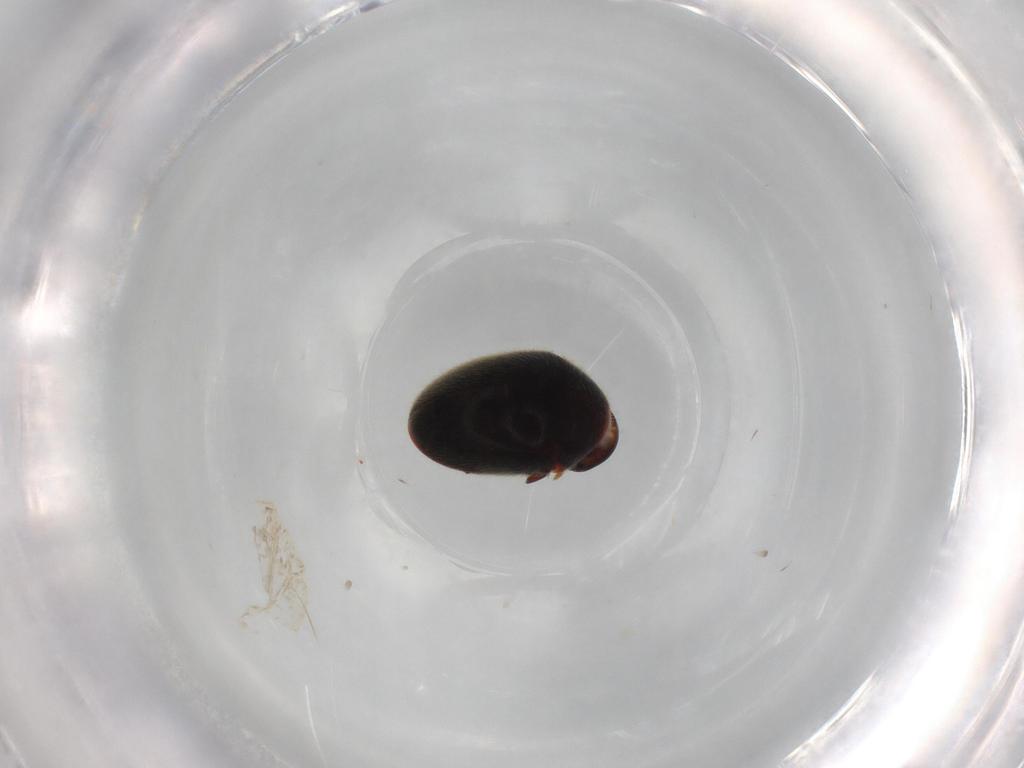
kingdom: Animalia
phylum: Arthropoda
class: Insecta
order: Coleoptera
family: Ptinidae
